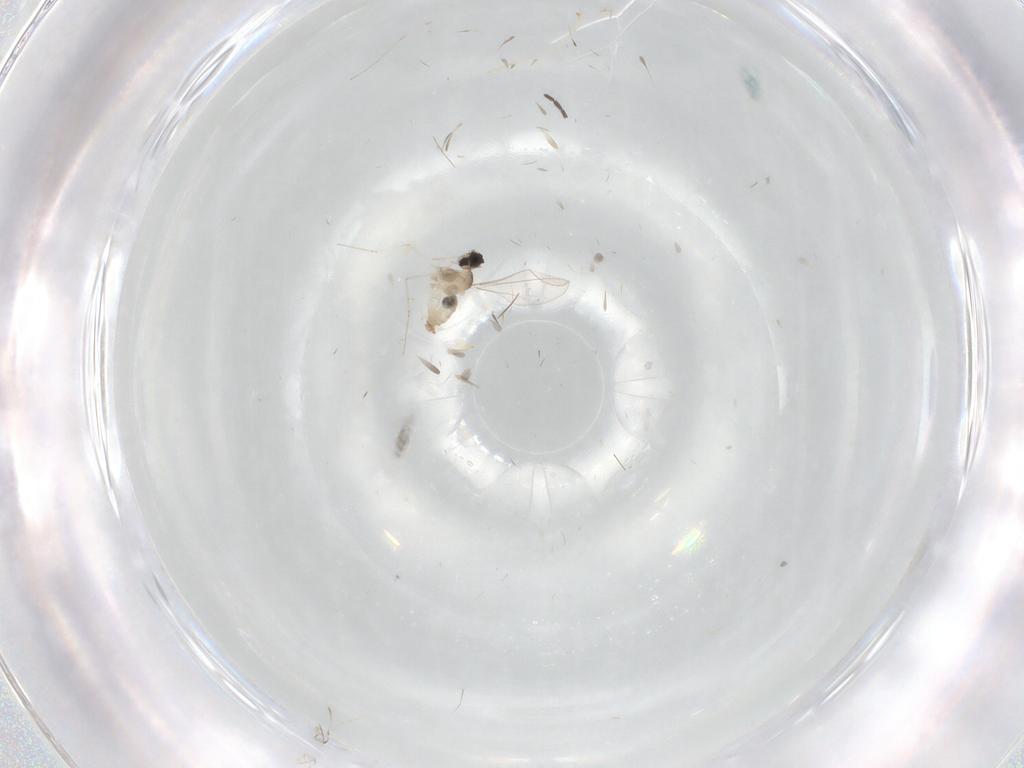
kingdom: Animalia
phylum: Arthropoda
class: Insecta
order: Diptera
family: Cecidomyiidae
